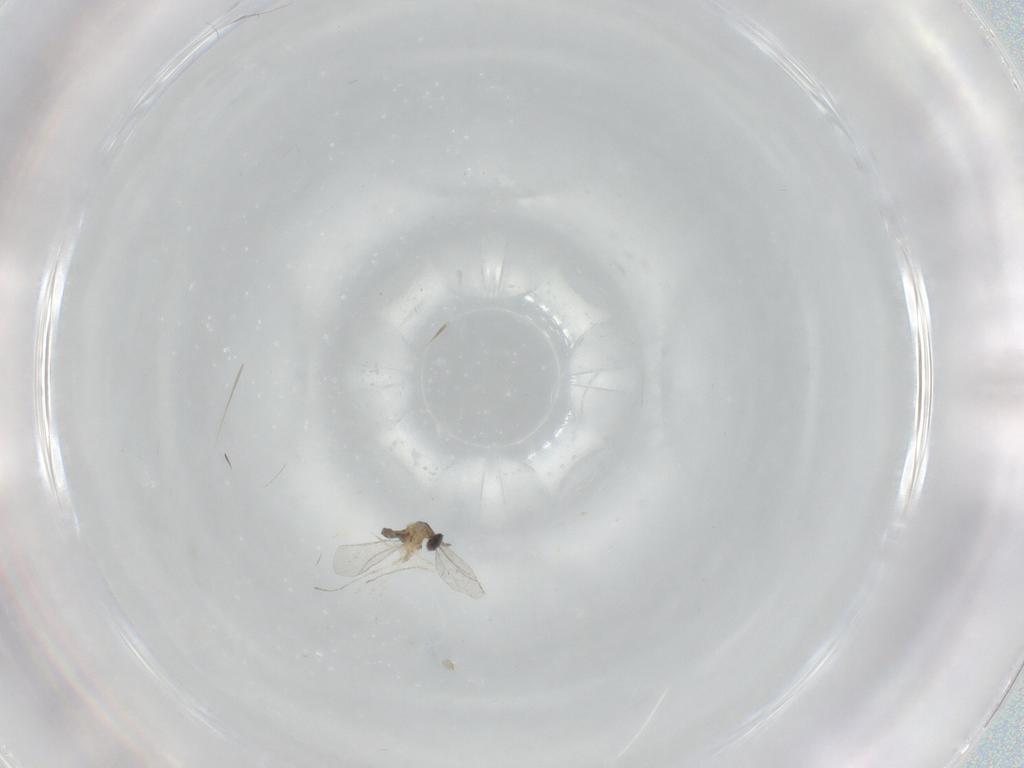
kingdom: Animalia
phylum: Arthropoda
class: Insecta
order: Diptera
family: Cecidomyiidae
